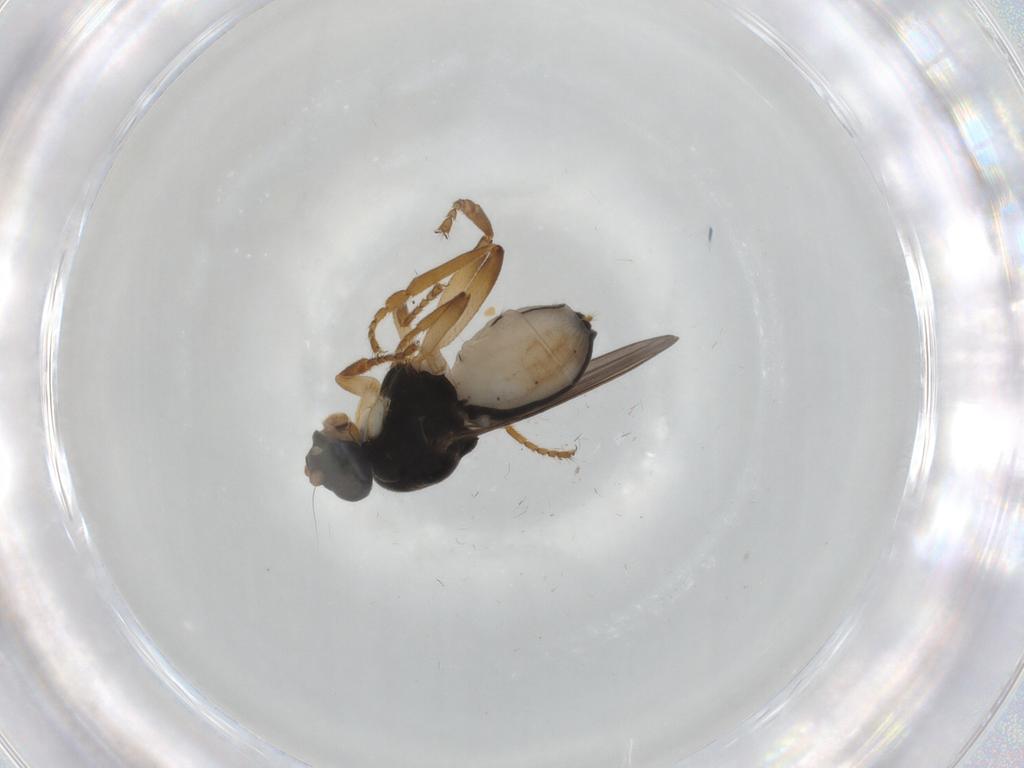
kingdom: Animalia
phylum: Arthropoda
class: Insecta
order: Diptera
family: Sphaeroceridae
